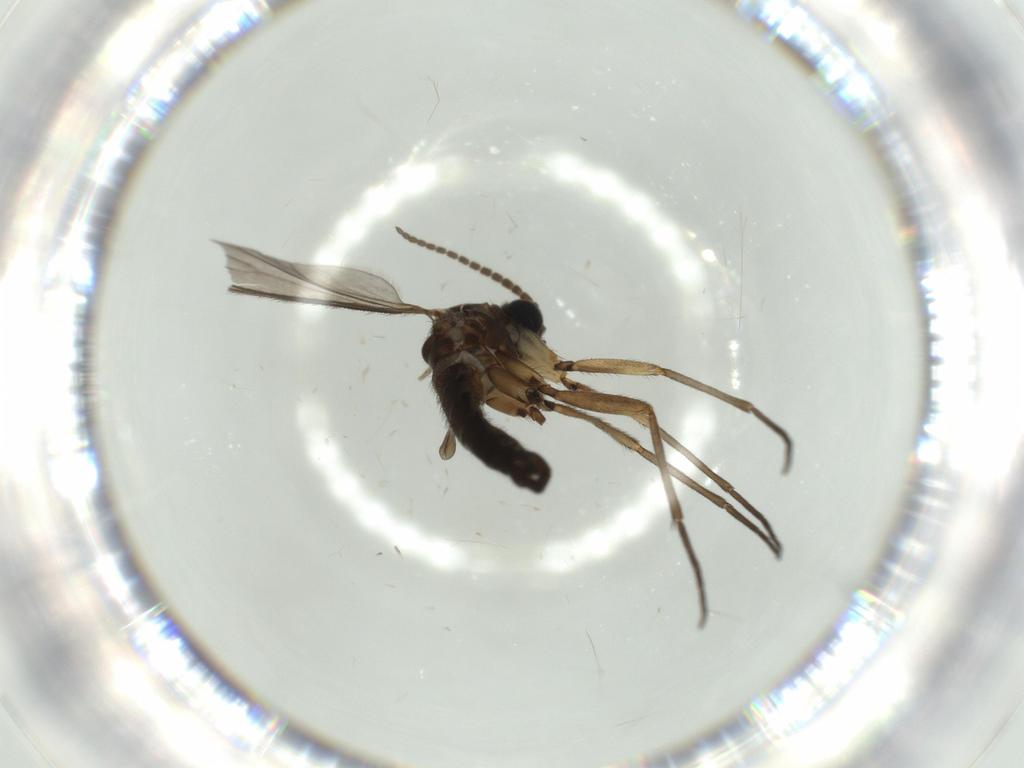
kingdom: Animalia
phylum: Arthropoda
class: Insecta
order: Diptera
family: Sciaridae
